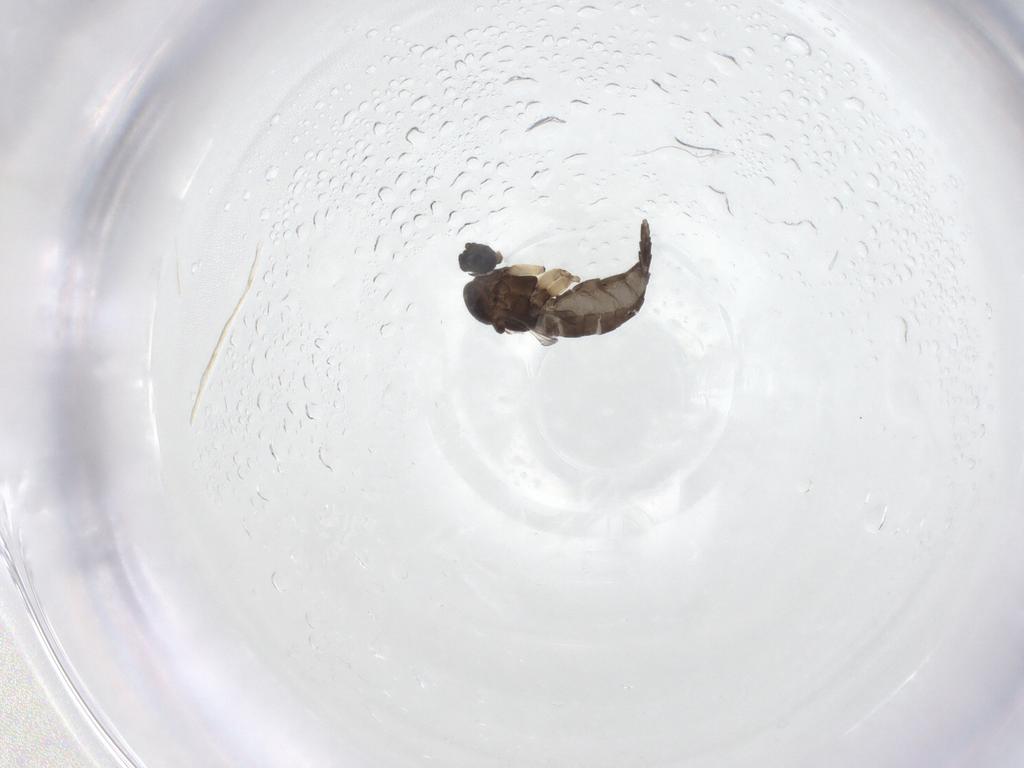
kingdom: Animalia
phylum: Arthropoda
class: Insecta
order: Diptera
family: Sciaridae
